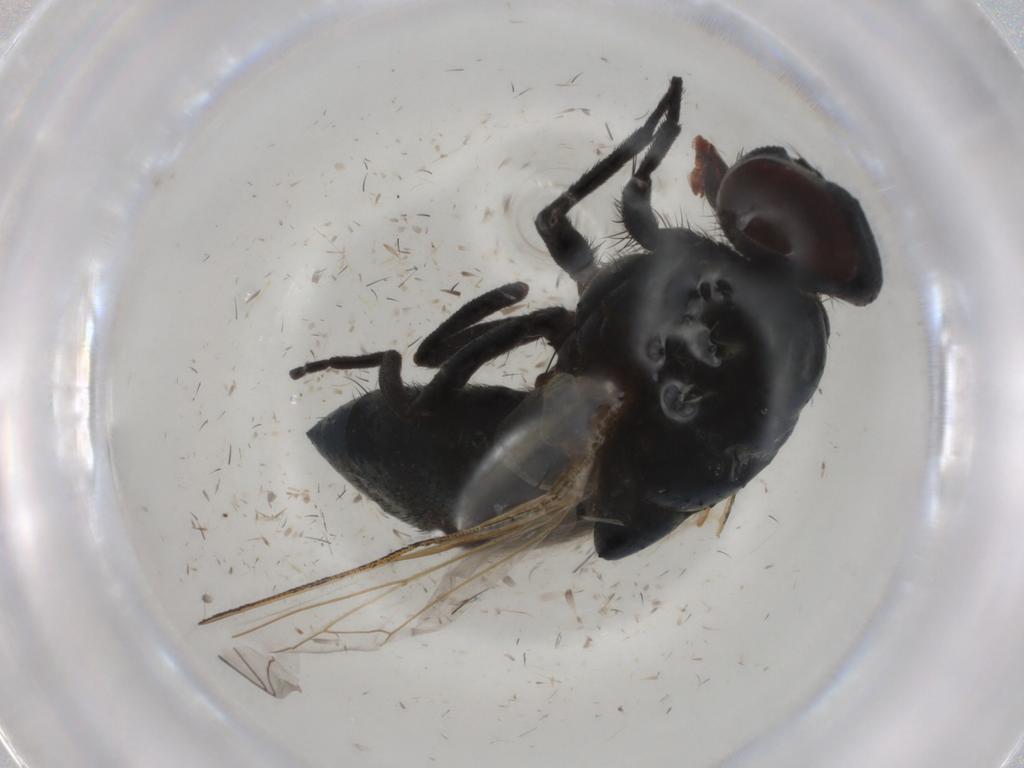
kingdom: Animalia
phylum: Arthropoda
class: Insecta
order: Diptera
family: Muscidae
